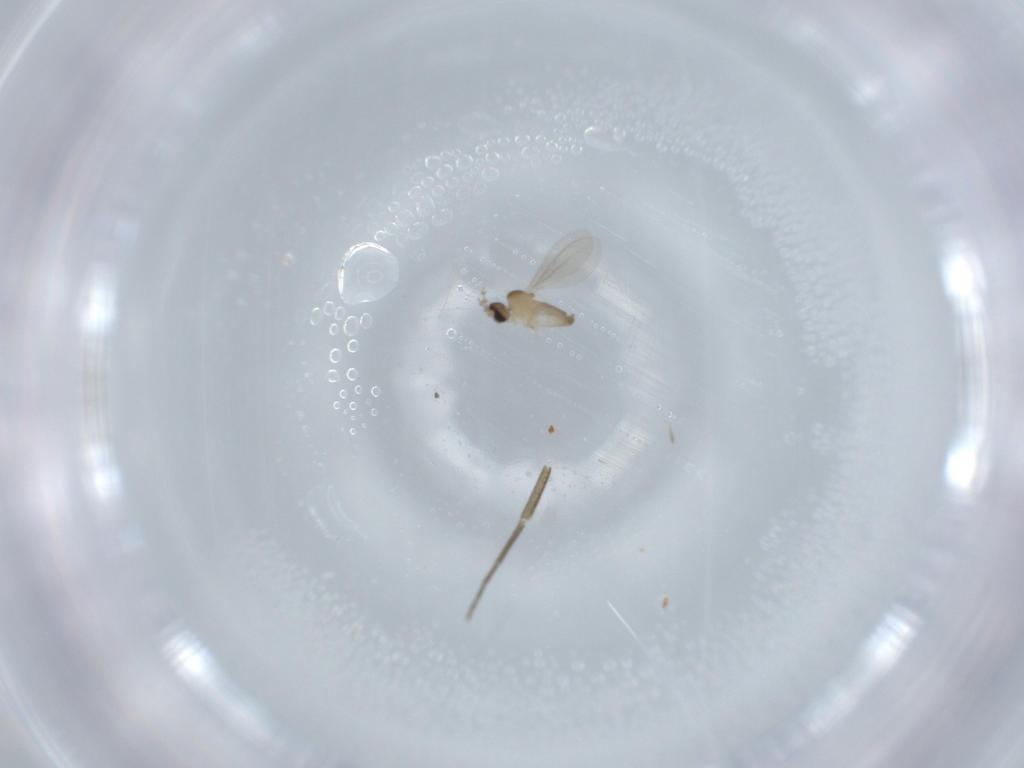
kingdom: Animalia
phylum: Arthropoda
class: Insecta
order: Diptera
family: Cecidomyiidae
